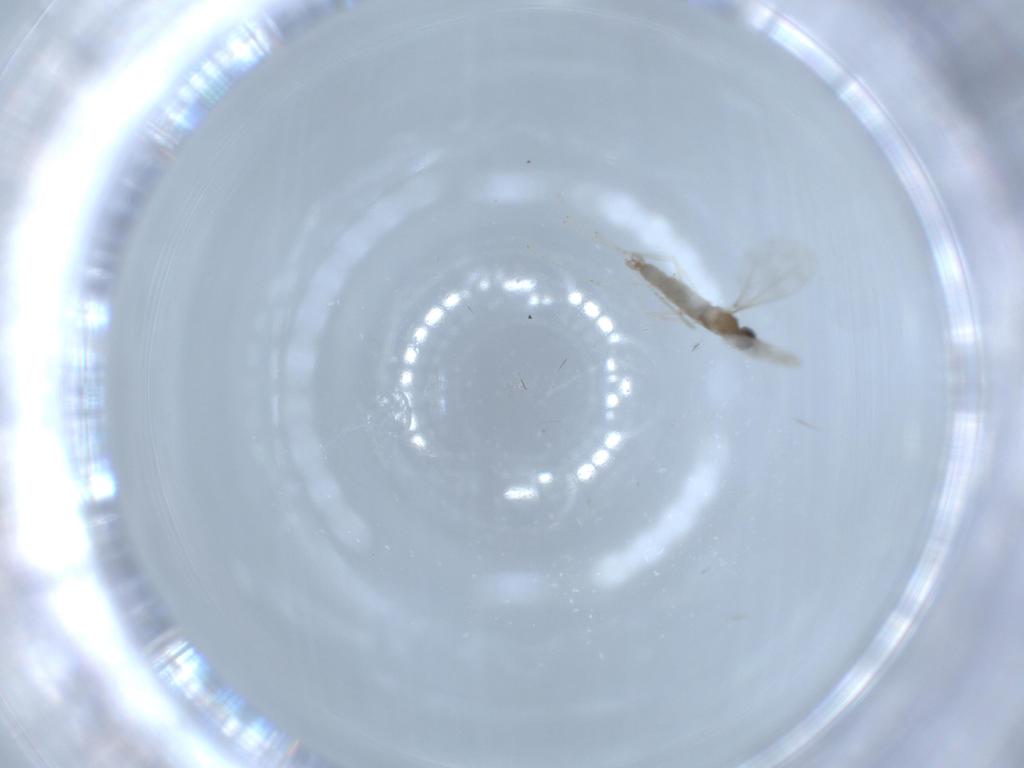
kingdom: Animalia
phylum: Arthropoda
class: Insecta
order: Diptera
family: Cecidomyiidae
